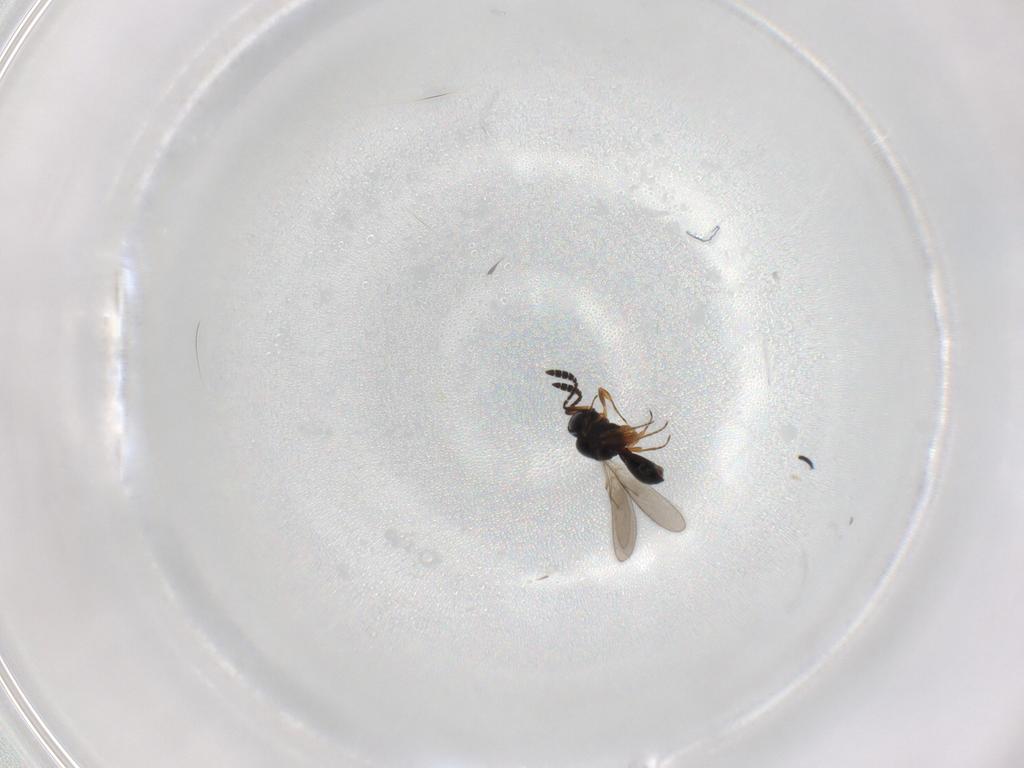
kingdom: Animalia
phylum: Arthropoda
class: Insecta
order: Hymenoptera
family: Scelionidae
